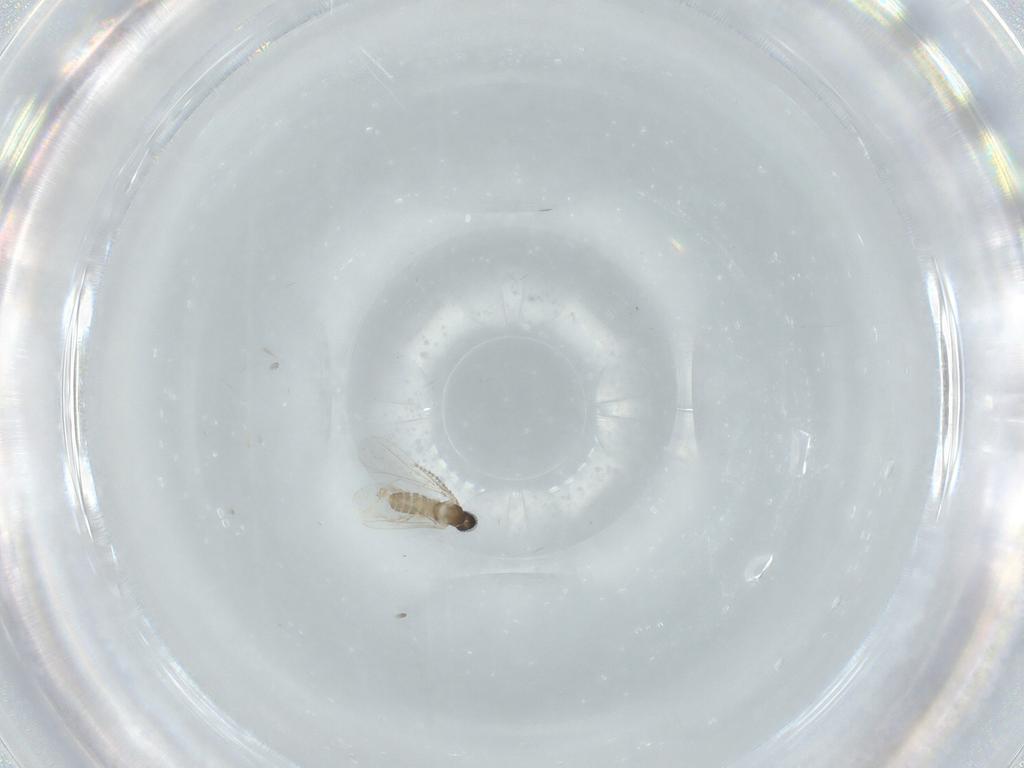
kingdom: Animalia
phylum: Arthropoda
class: Insecta
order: Diptera
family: Cecidomyiidae
